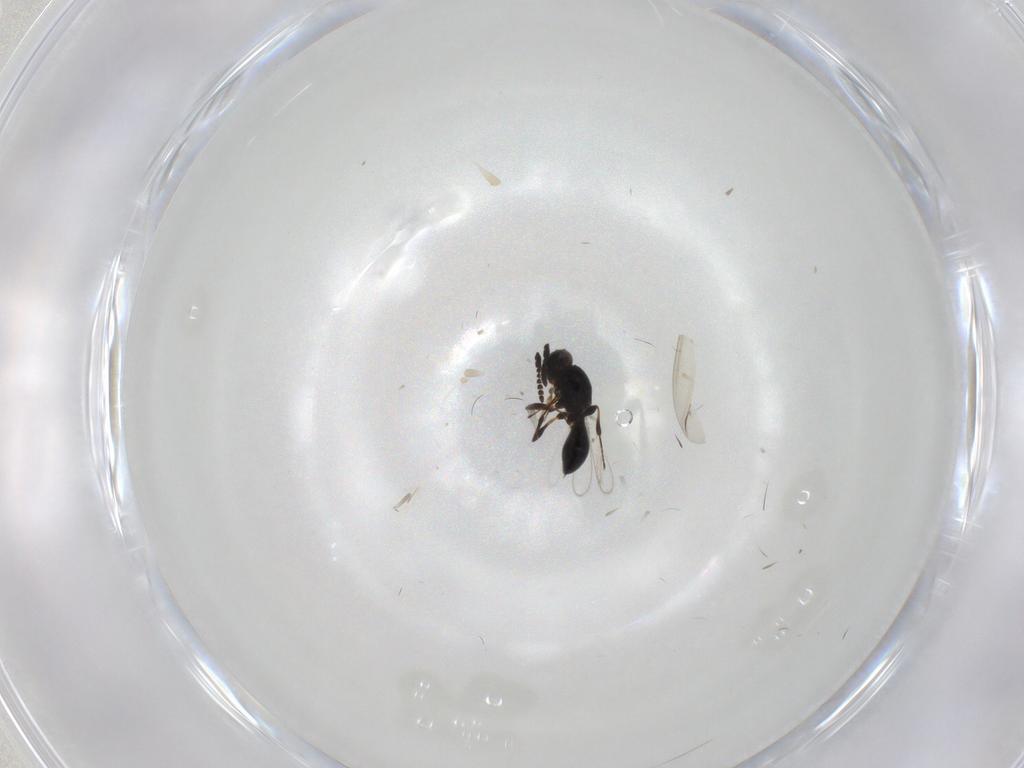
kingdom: Animalia
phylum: Arthropoda
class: Insecta
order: Hymenoptera
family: Platygastridae
